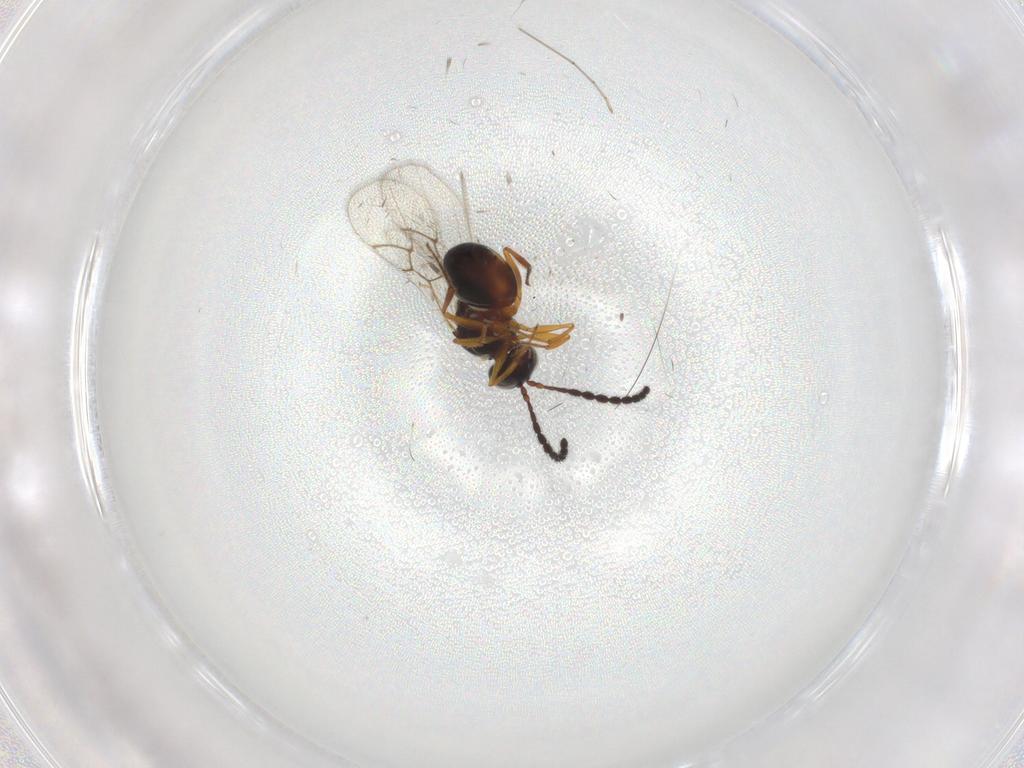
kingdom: Animalia
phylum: Arthropoda
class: Insecta
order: Hymenoptera
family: Figitidae
